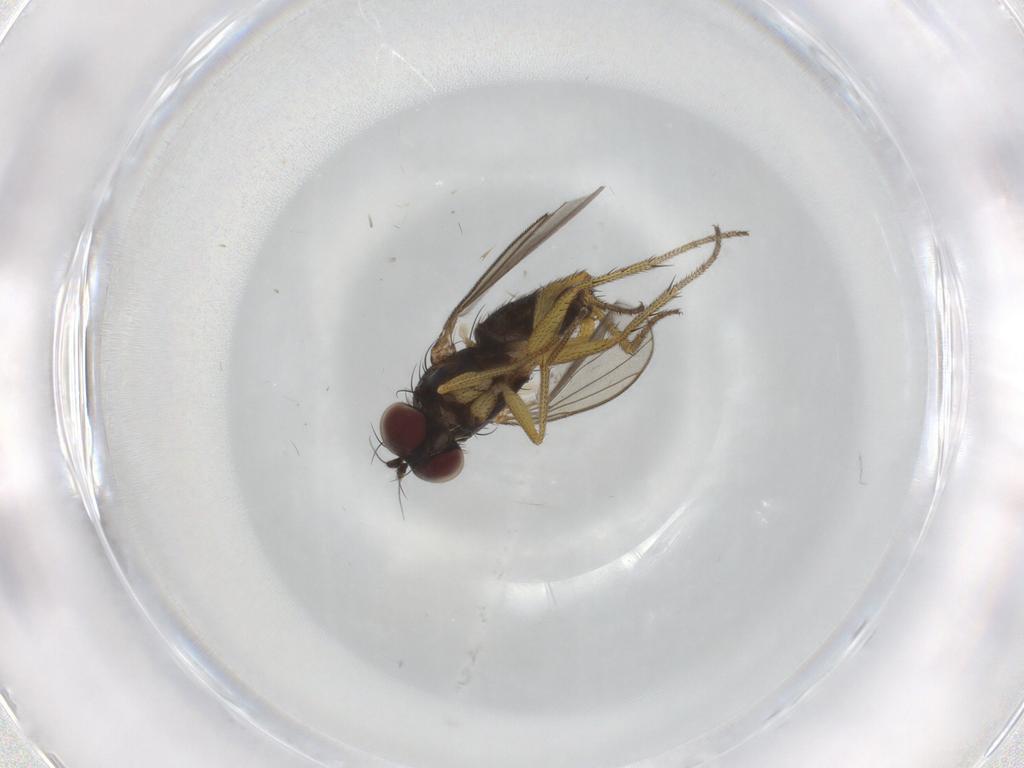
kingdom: Animalia
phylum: Arthropoda
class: Insecta
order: Diptera
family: Dolichopodidae
